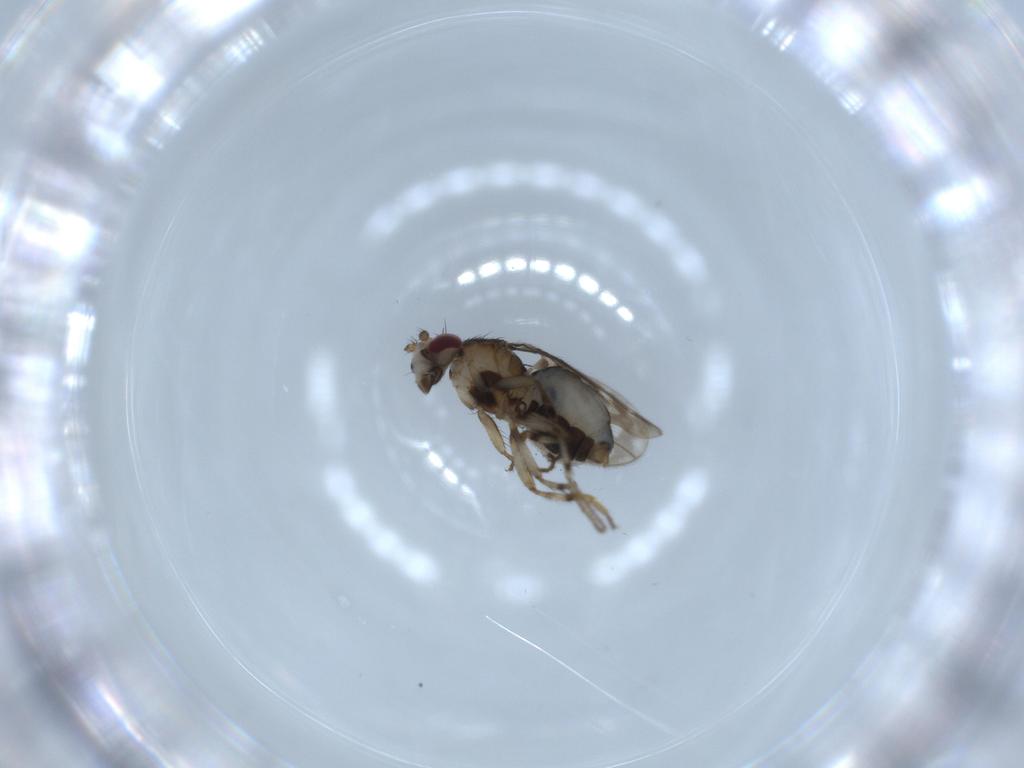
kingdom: Animalia
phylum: Arthropoda
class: Insecta
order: Diptera
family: Sphaeroceridae
